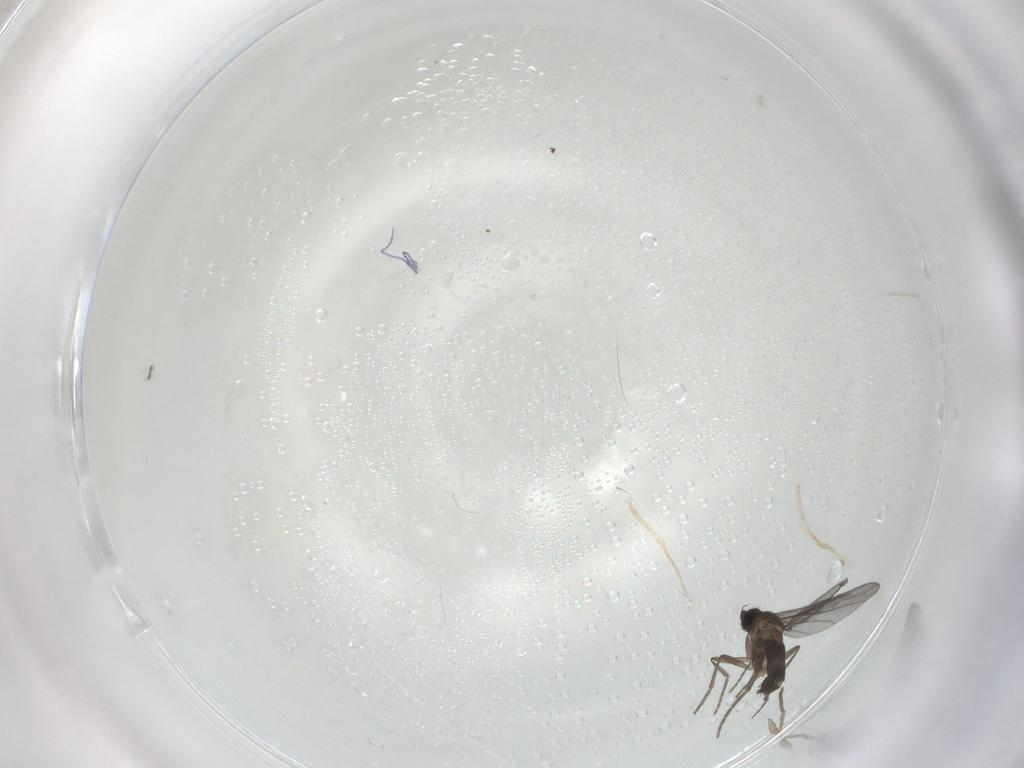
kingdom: Animalia
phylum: Arthropoda
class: Insecta
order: Diptera
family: Phoridae
